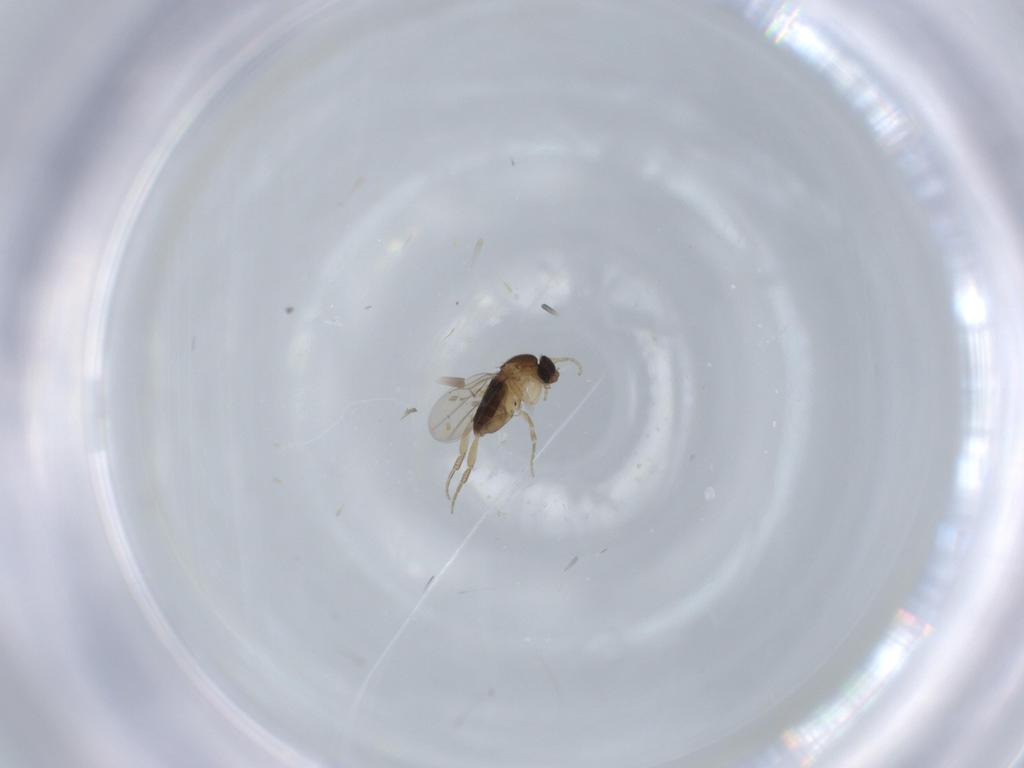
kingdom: Animalia
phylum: Arthropoda
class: Insecta
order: Diptera
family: Phoridae
